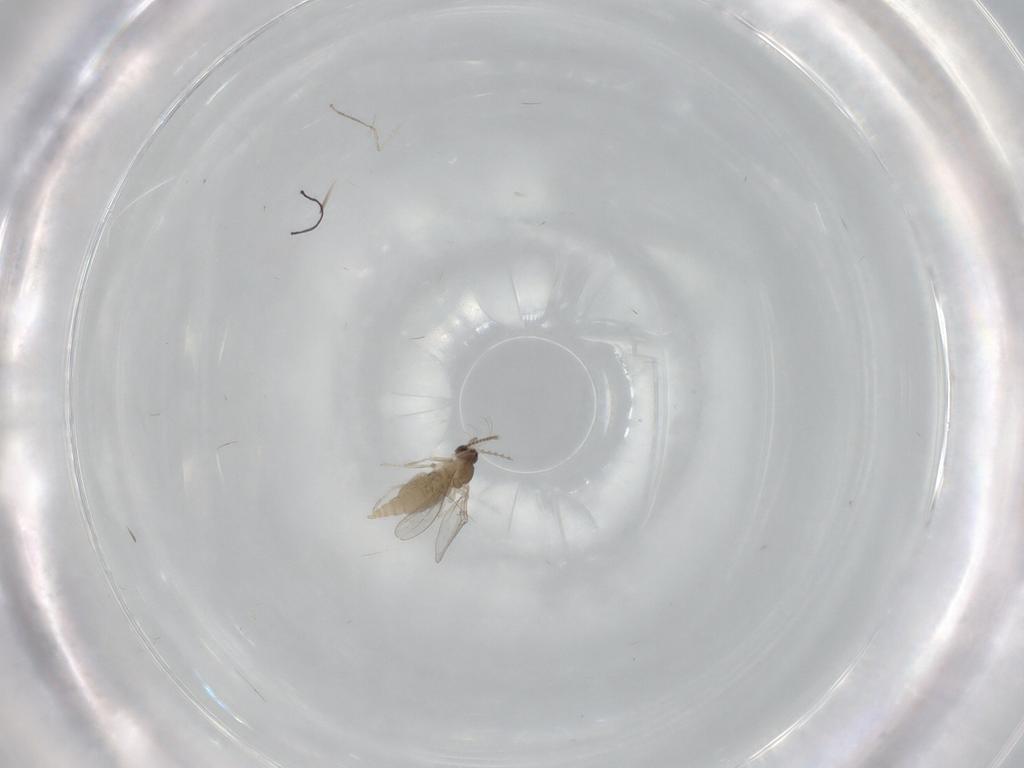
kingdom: Animalia
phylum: Arthropoda
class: Insecta
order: Diptera
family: Cecidomyiidae
